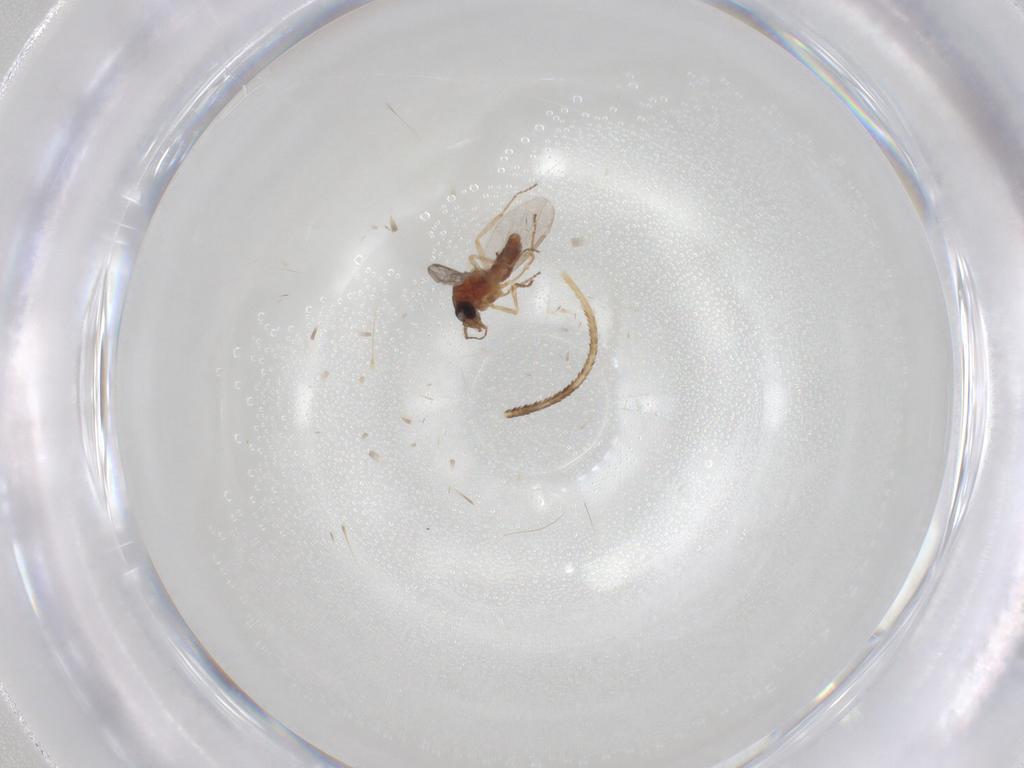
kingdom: Animalia
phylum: Arthropoda
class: Insecta
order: Diptera
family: Ceratopogonidae
